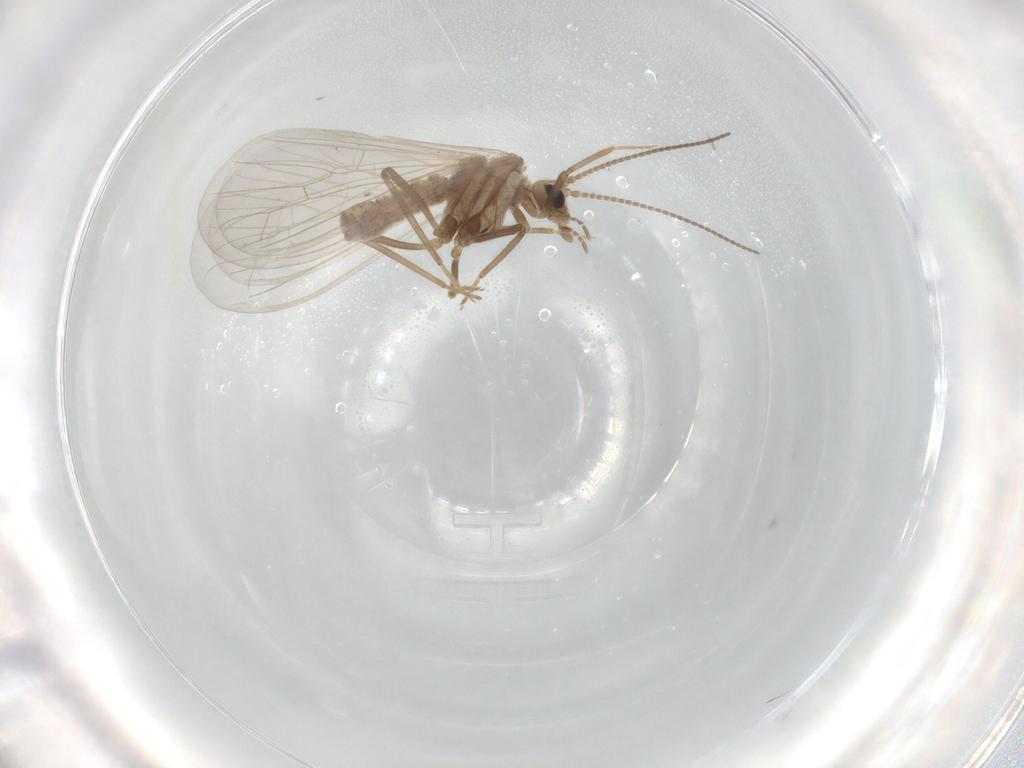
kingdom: Animalia
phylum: Arthropoda
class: Insecta
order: Neuroptera
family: Coniopterygidae
